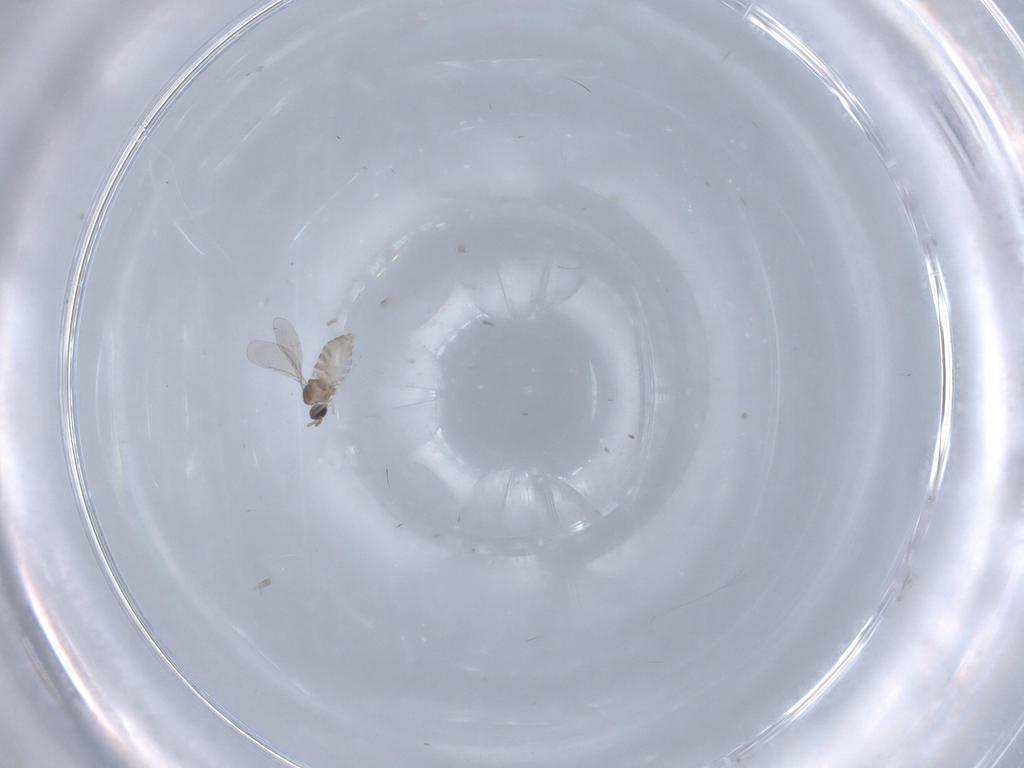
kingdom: Animalia
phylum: Arthropoda
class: Insecta
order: Diptera
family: Cecidomyiidae
